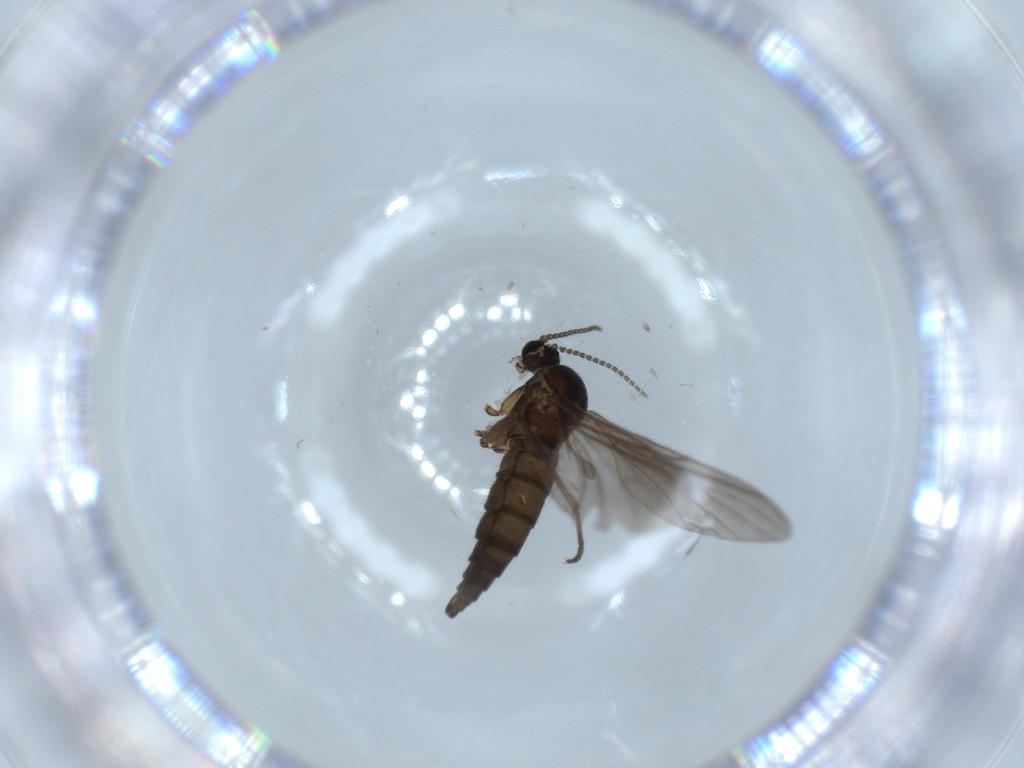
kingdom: Animalia
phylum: Arthropoda
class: Insecta
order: Diptera
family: Sciaridae
